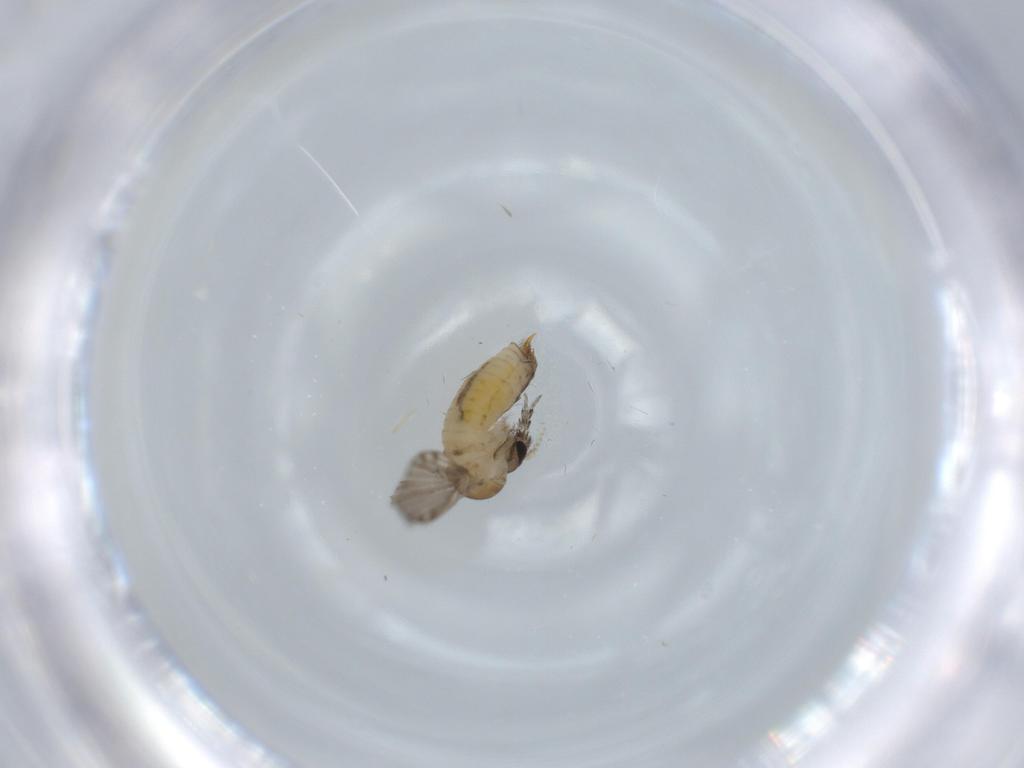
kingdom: Animalia
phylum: Arthropoda
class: Insecta
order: Diptera
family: Psychodidae
